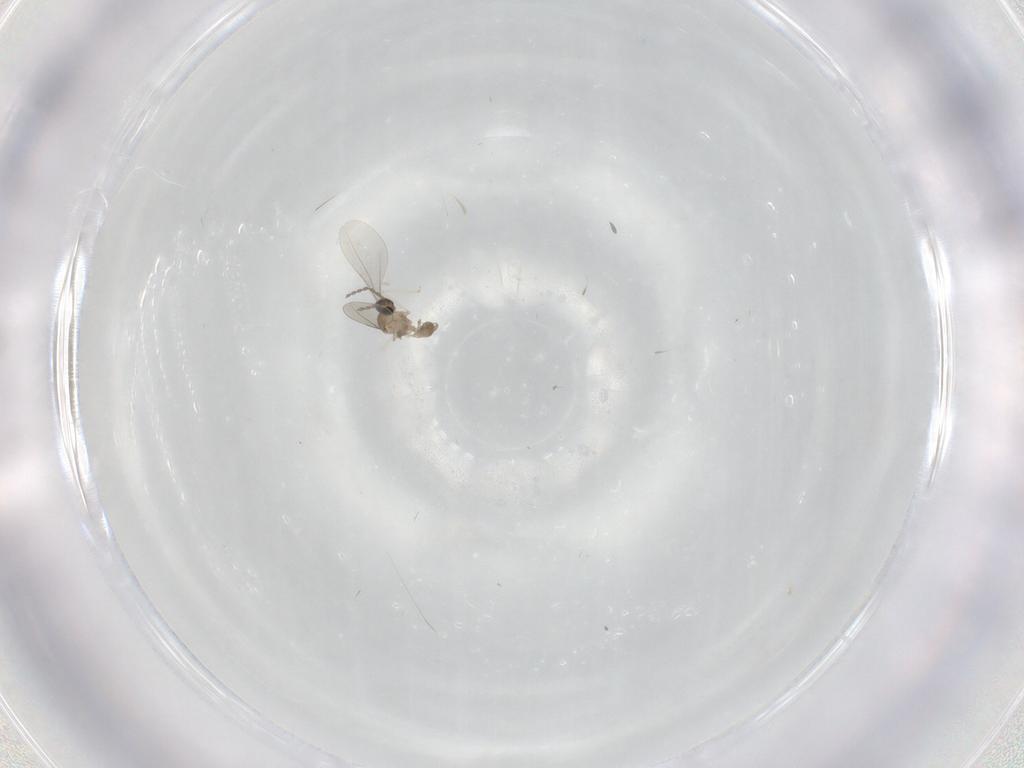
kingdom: Animalia
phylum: Arthropoda
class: Insecta
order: Diptera
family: Cecidomyiidae
